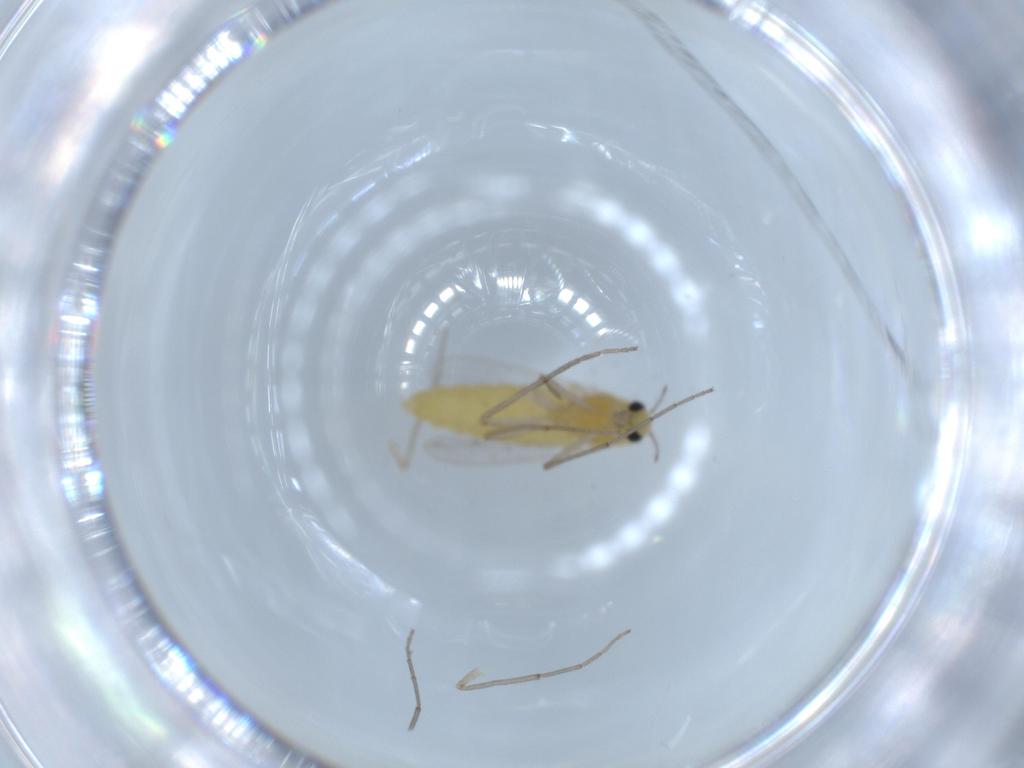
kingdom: Animalia
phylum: Arthropoda
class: Insecta
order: Diptera
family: Chironomidae
